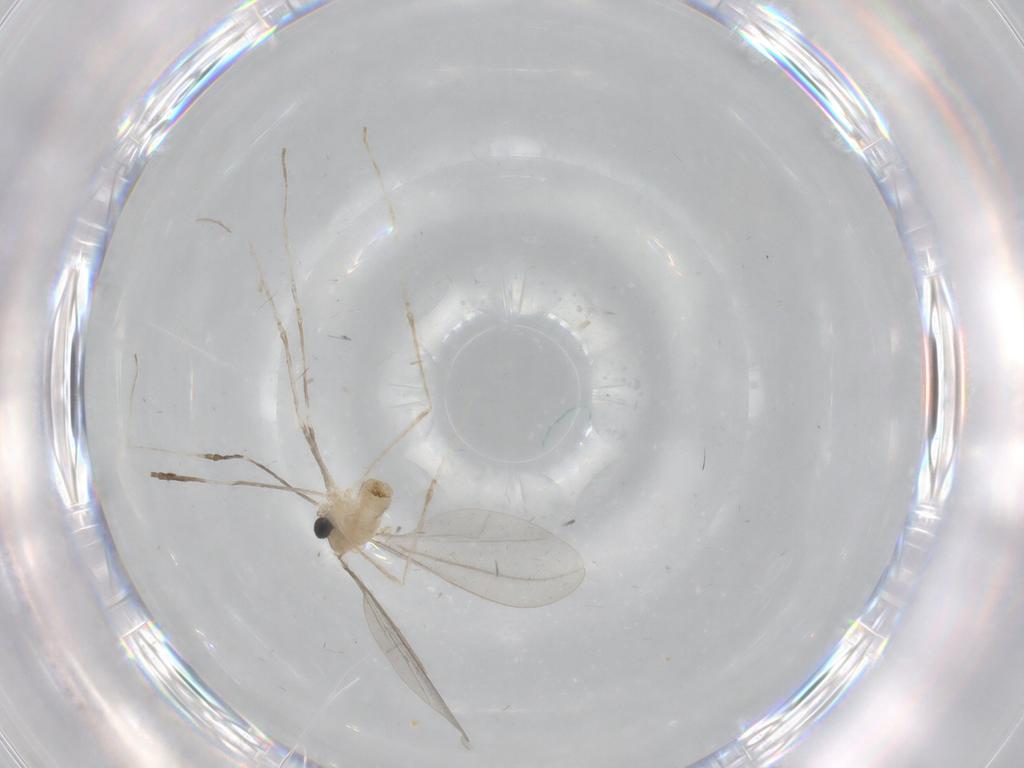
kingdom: Animalia
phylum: Arthropoda
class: Insecta
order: Diptera
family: Cecidomyiidae
